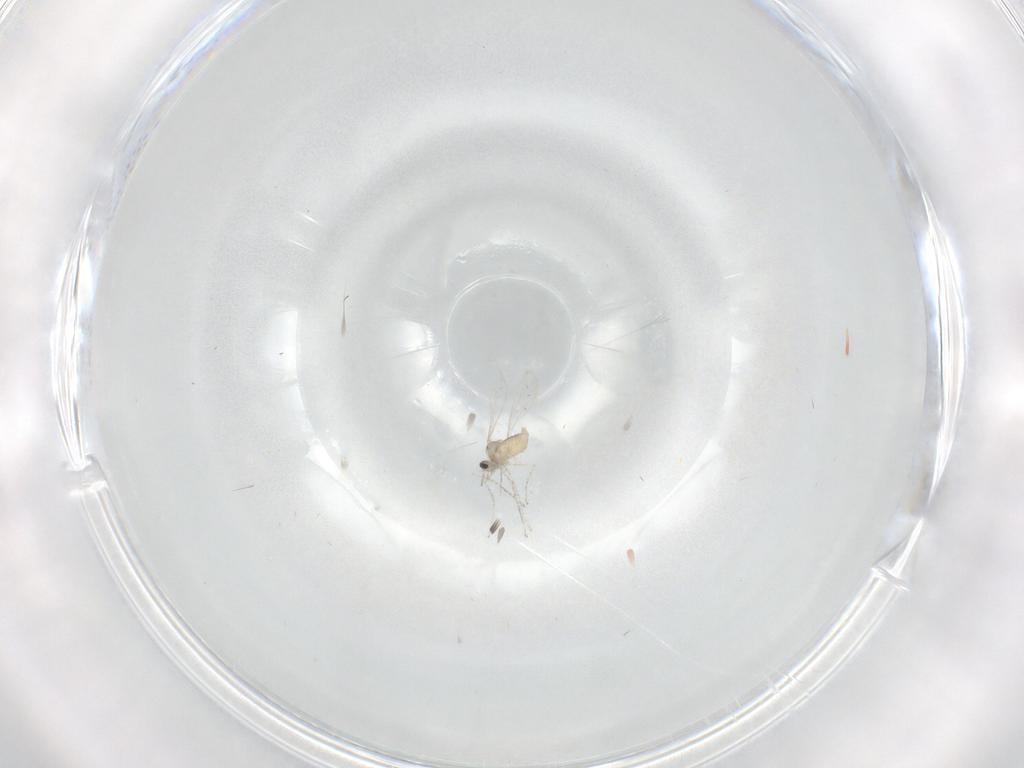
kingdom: Animalia
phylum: Arthropoda
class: Insecta
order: Diptera
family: Cecidomyiidae
